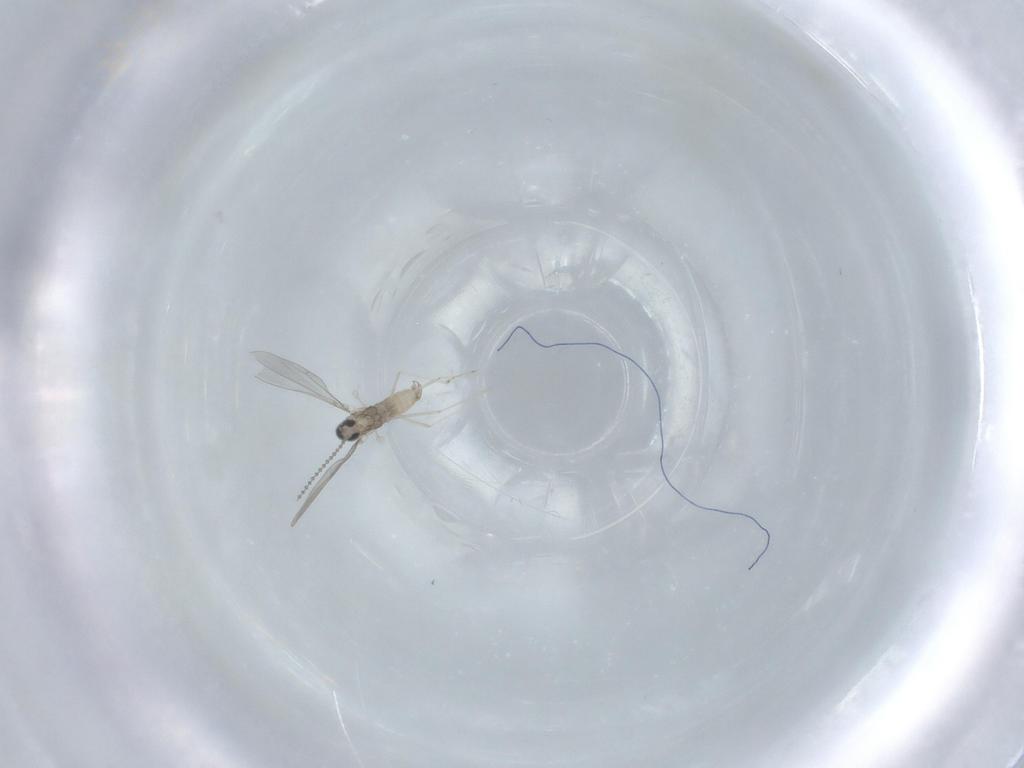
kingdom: Animalia
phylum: Arthropoda
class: Insecta
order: Diptera
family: Cecidomyiidae
